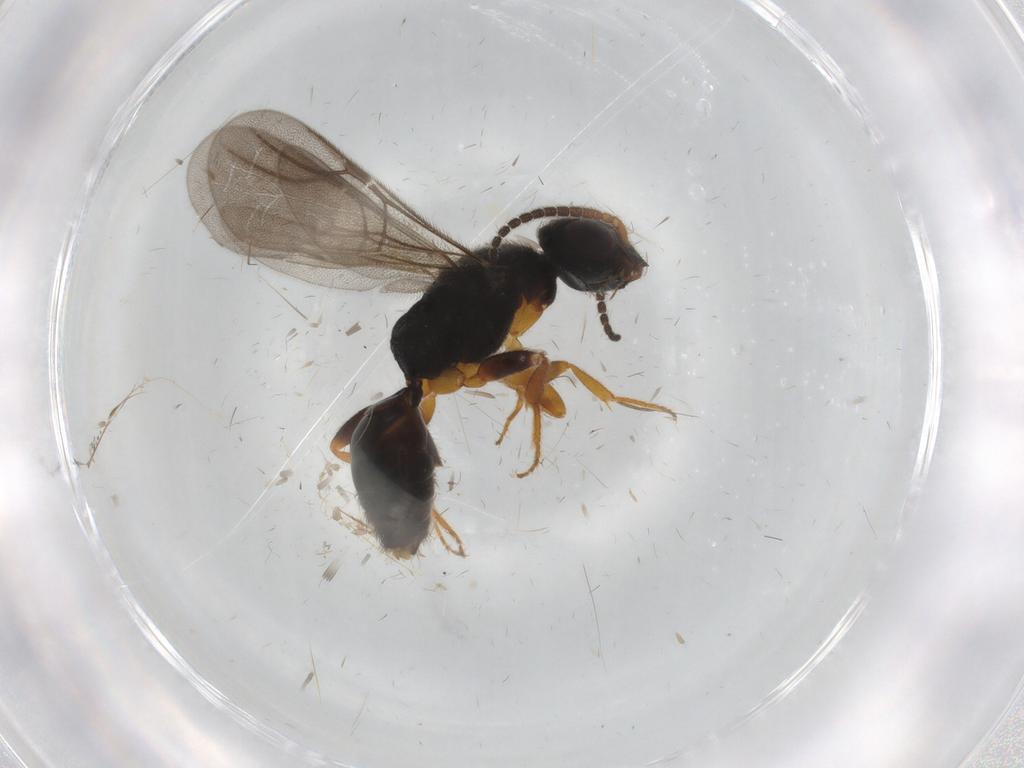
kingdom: Animalia
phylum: Arthropoda
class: Insecta
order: Hymenoptera
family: Bethylidae
